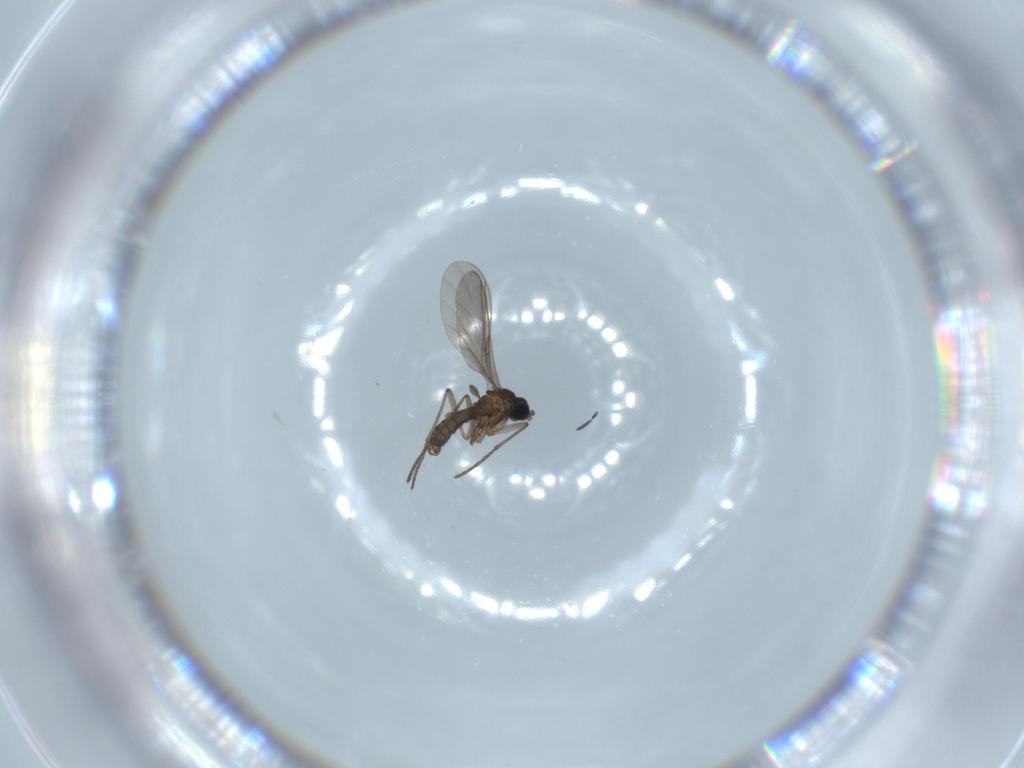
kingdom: Animalia
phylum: Arthropoda
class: Insecta
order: Diptera
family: Sciaridae
